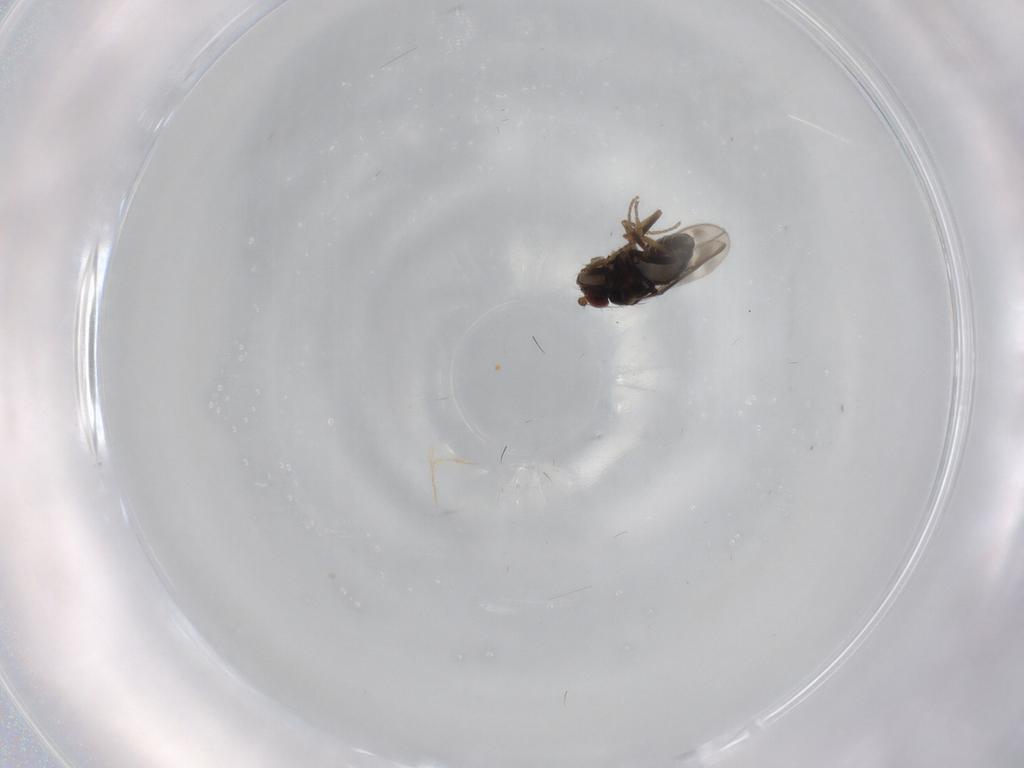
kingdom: Animalia
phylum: Arthropoda
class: Insecta
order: Diptera
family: Sphaeroceridae
